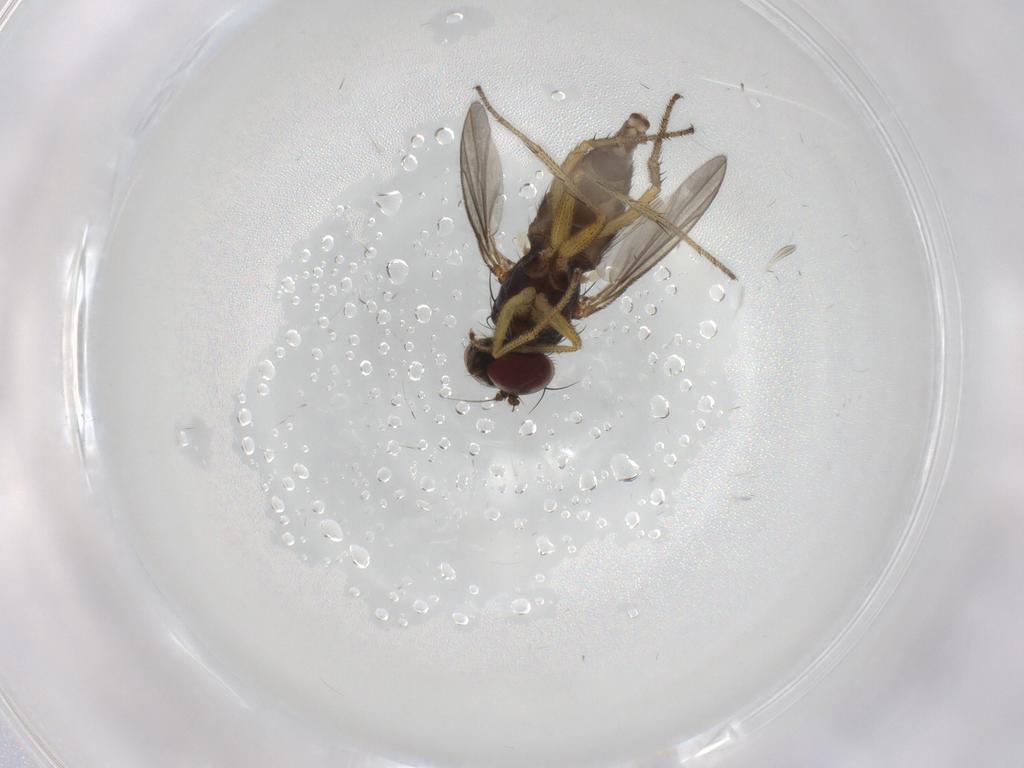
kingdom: Animalia
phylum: Arthropoda
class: Insecta
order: Diptera
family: Dolichopodidae
